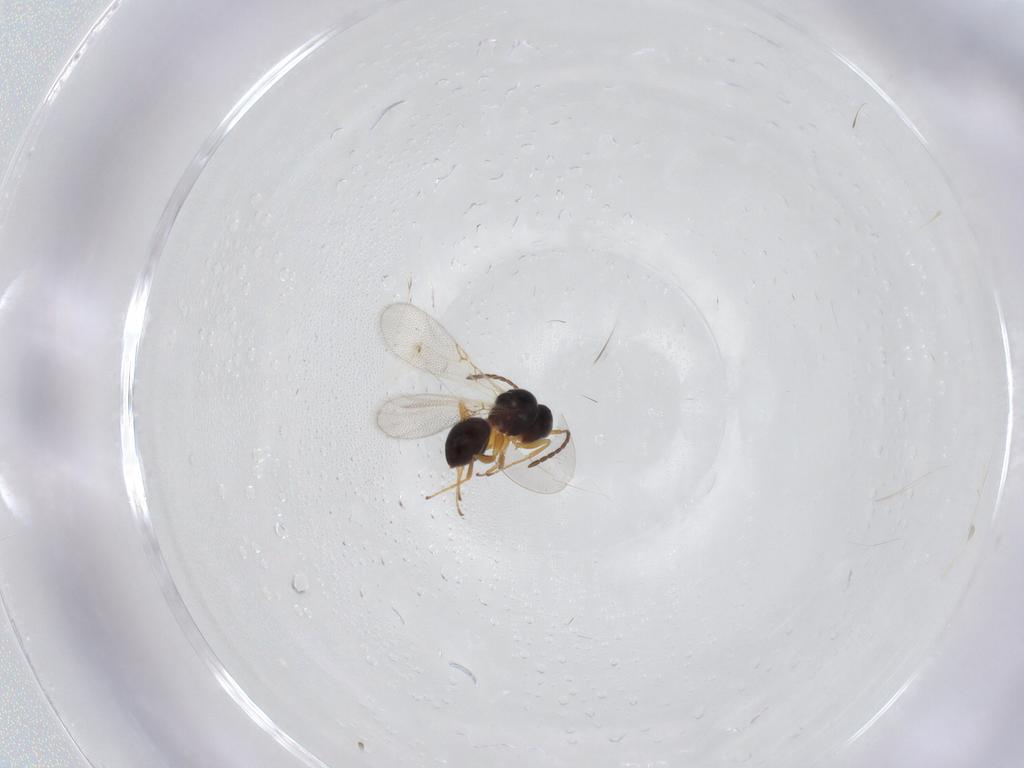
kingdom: Animalia
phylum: Arthropoda
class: Insecta
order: Hymenoptera
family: Figitidae
